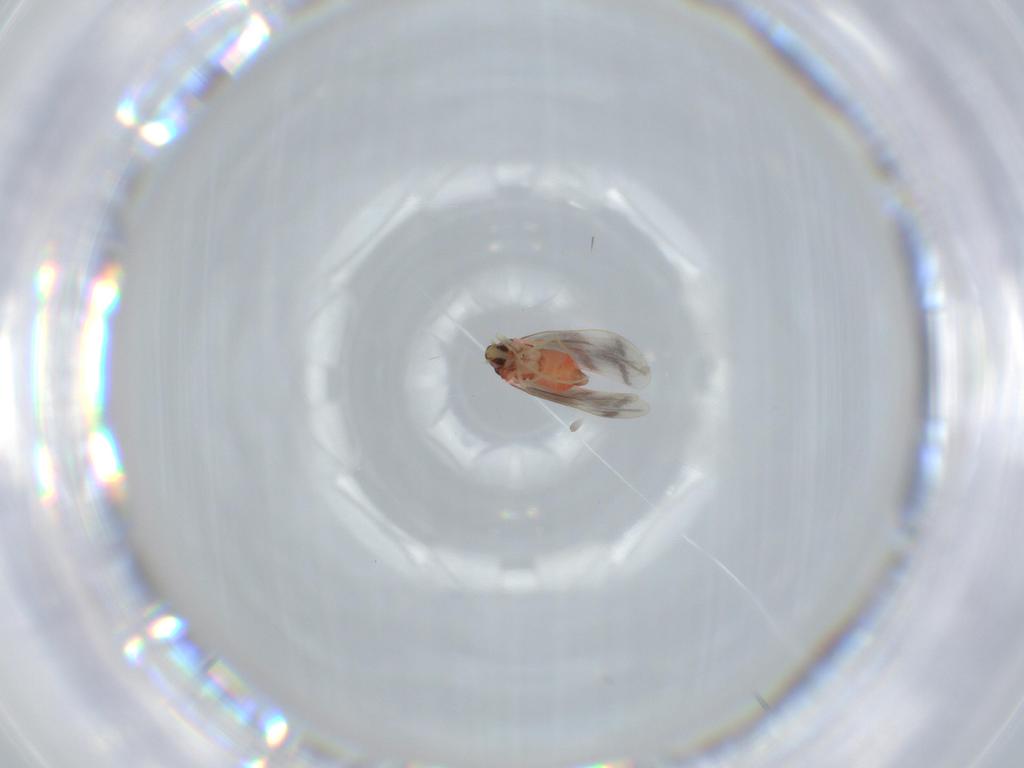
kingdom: Animalia
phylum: Arthropoda
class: Insecta
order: Hemiptera
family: Aleyrodidae
